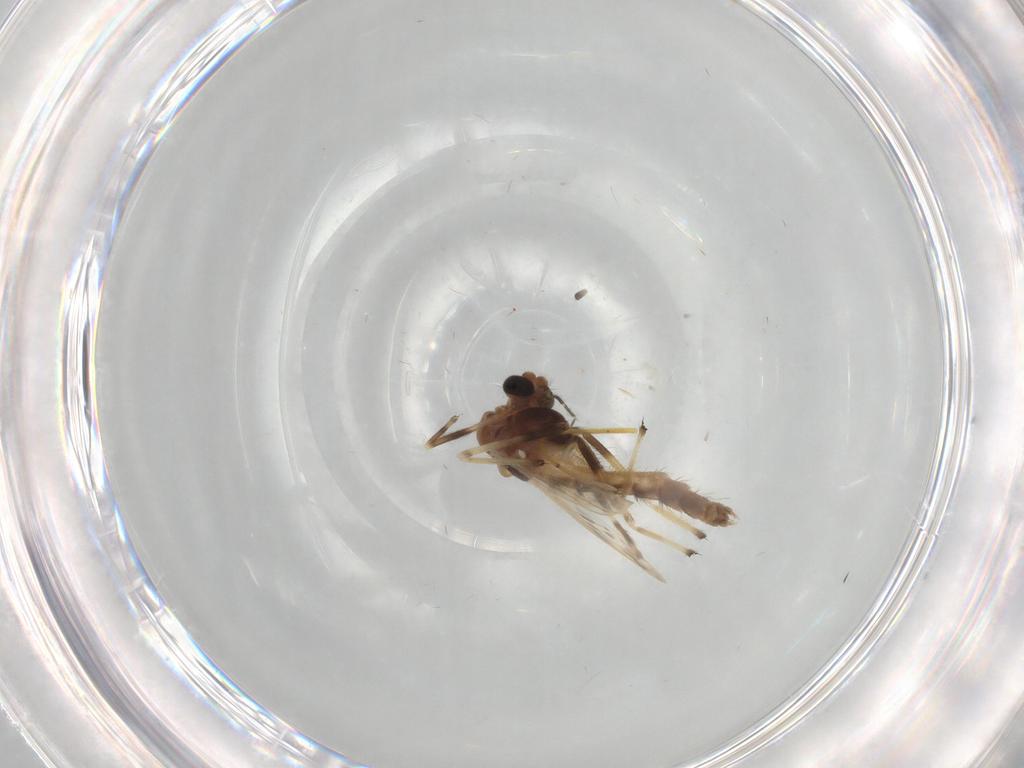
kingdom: Animalia
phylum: Arthropoda
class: Insecta
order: Diptera
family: Chironomidae
